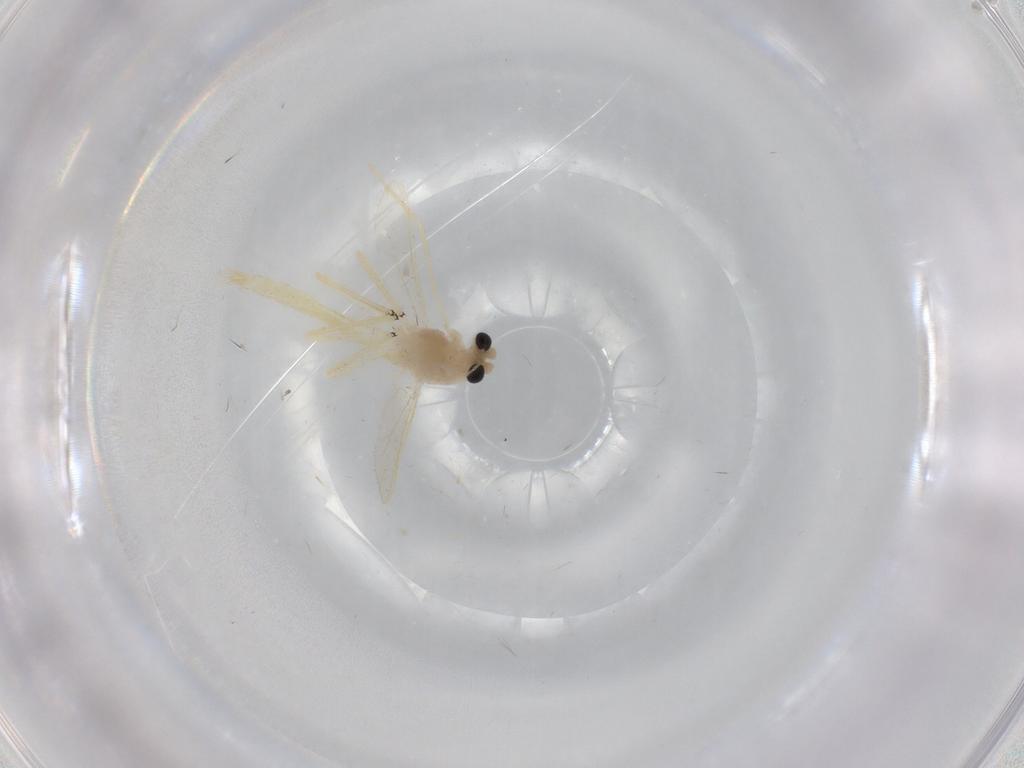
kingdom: Animalia
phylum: Arthropoda
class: Insecta
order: Diptera
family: Chironomidae
